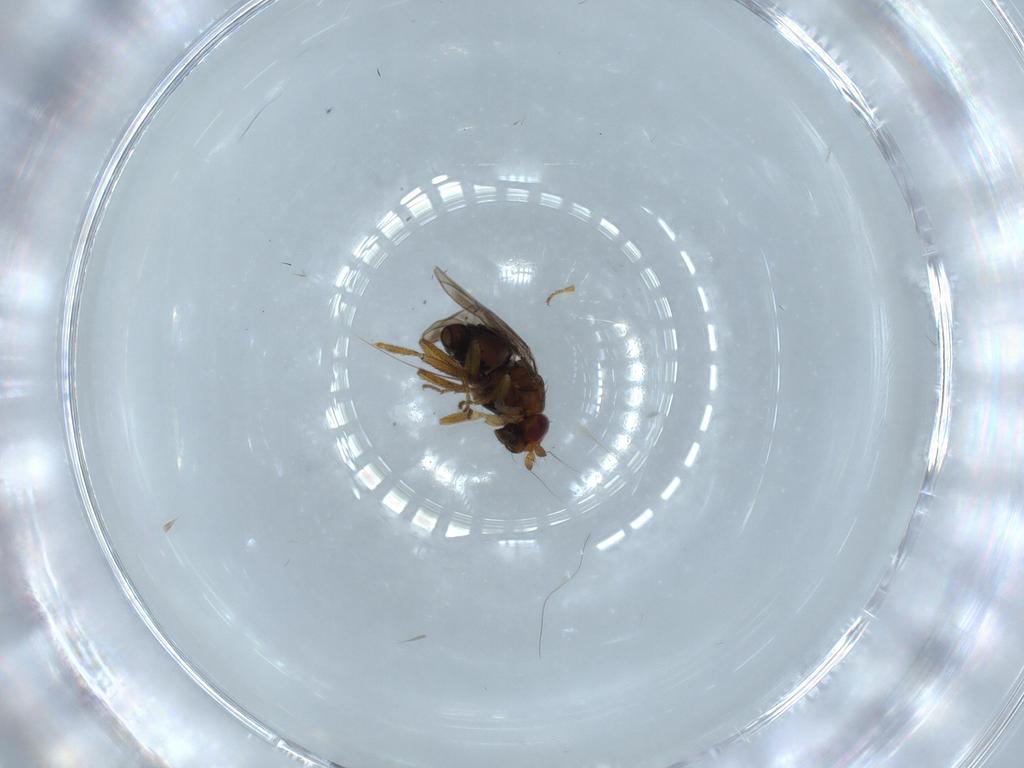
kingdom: Animalia
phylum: Arthropoda
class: Insecta
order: Diptera
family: Sphaeroceridae
